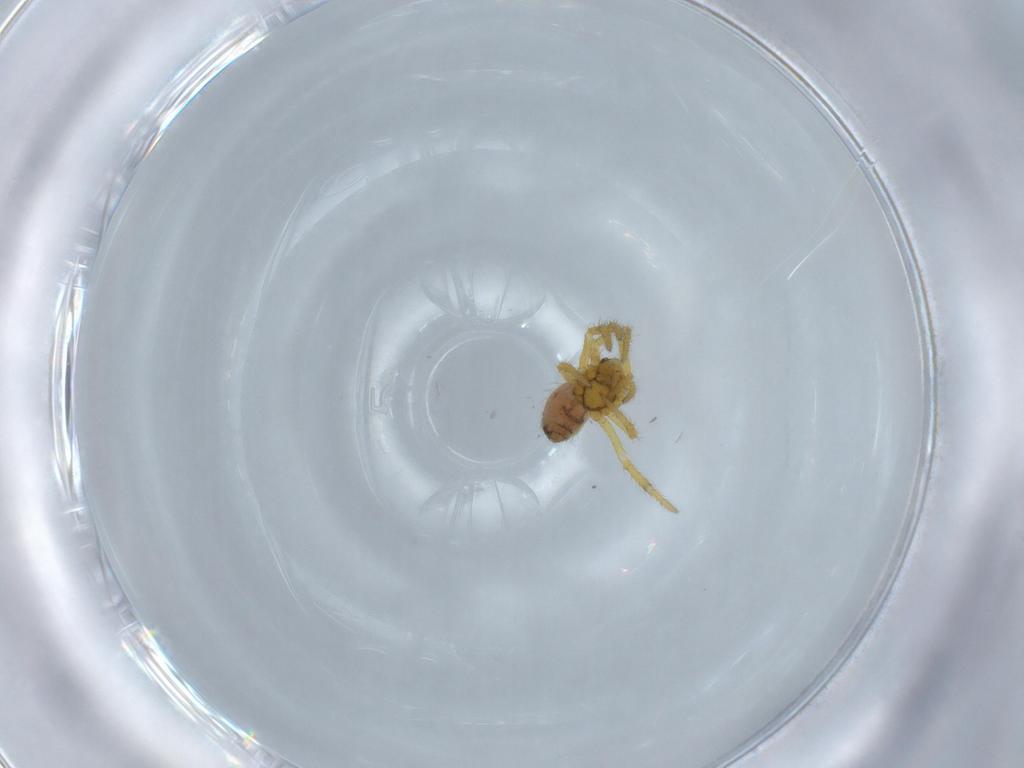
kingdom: Animalia
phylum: Arthropoda
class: Arachnida
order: Araneae
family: Theridiidae
